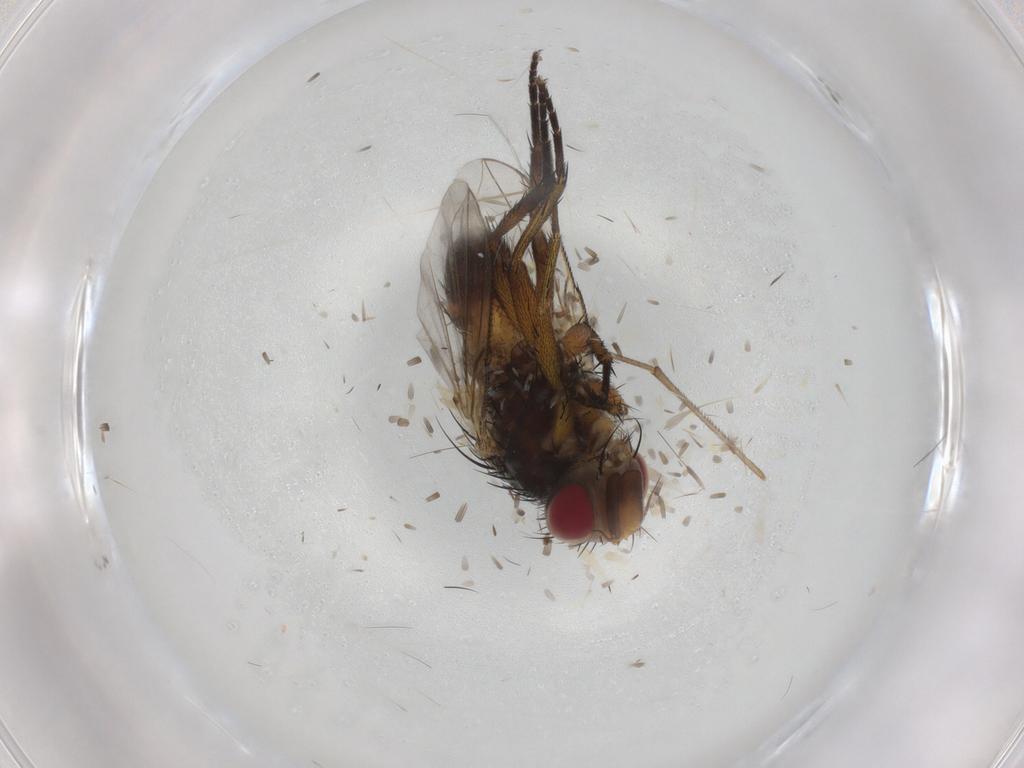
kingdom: Animalia
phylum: Arthropoda
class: Insecta
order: Diptera
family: Sciaridae
